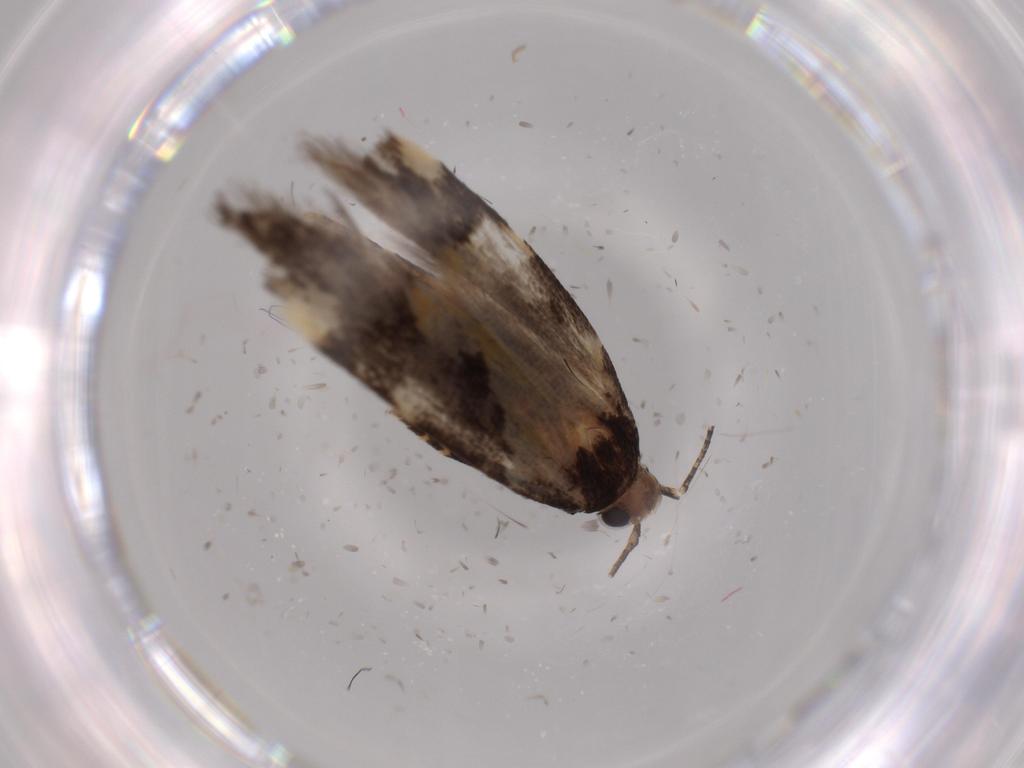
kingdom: Animalia
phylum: Arthropoda
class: Insecta
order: Lepidoptera
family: Gelechiidae
